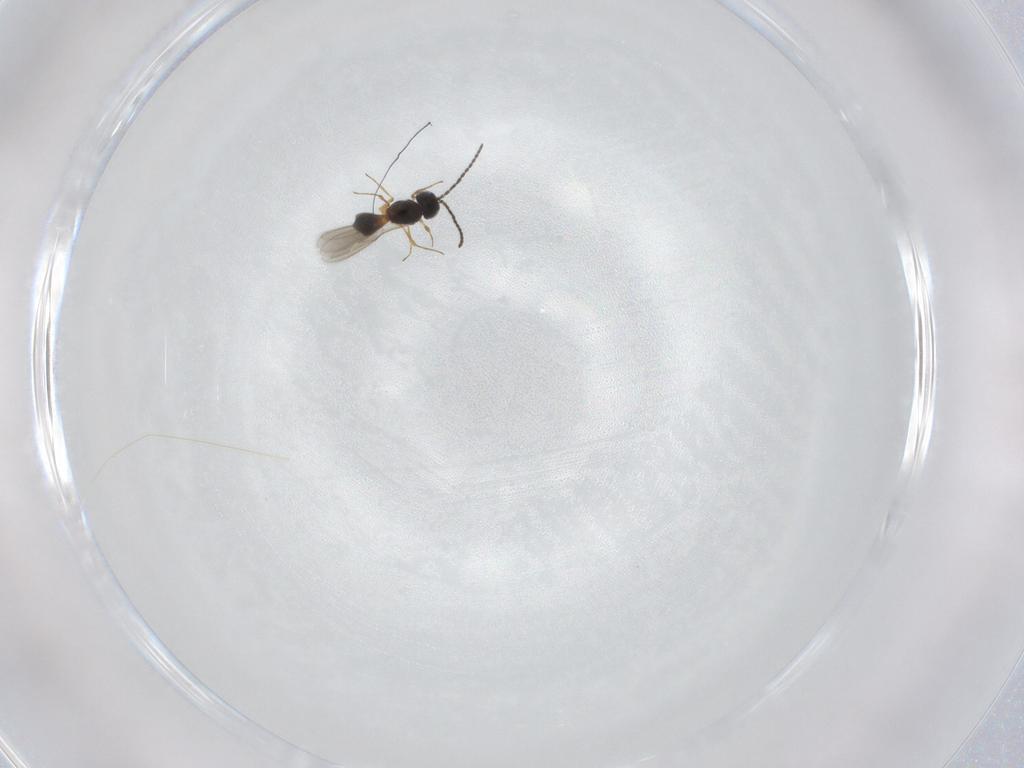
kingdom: Animalia
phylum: Arthropoda
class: Insecta
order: Hymenoptera
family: Scelionidae
